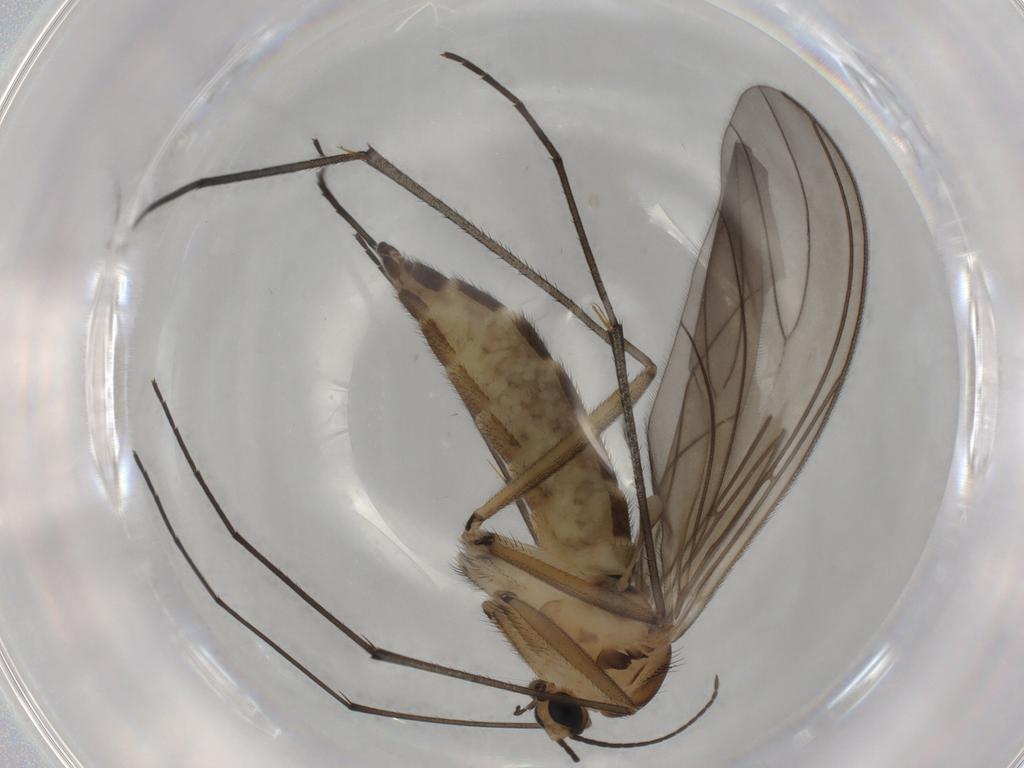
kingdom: Animalia
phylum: Arthropoda
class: Insecta
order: Diptera
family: Sciaridae
